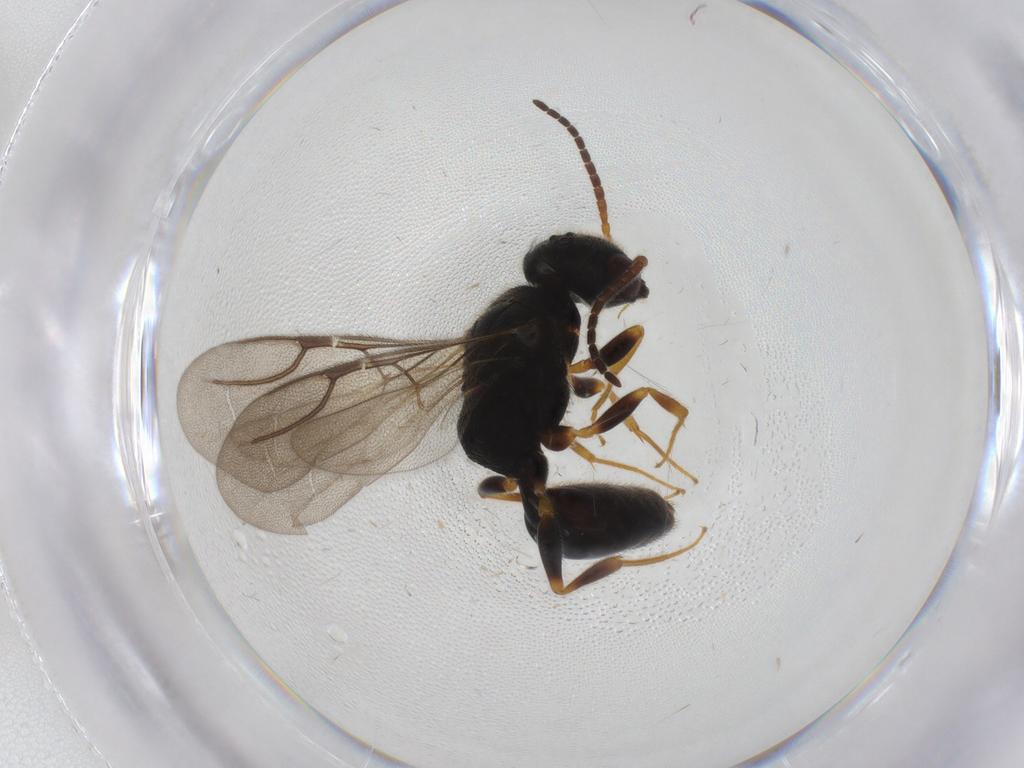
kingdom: Animalia
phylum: Arthropoda
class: Insecta
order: Hymenoptera
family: Bethylidae
